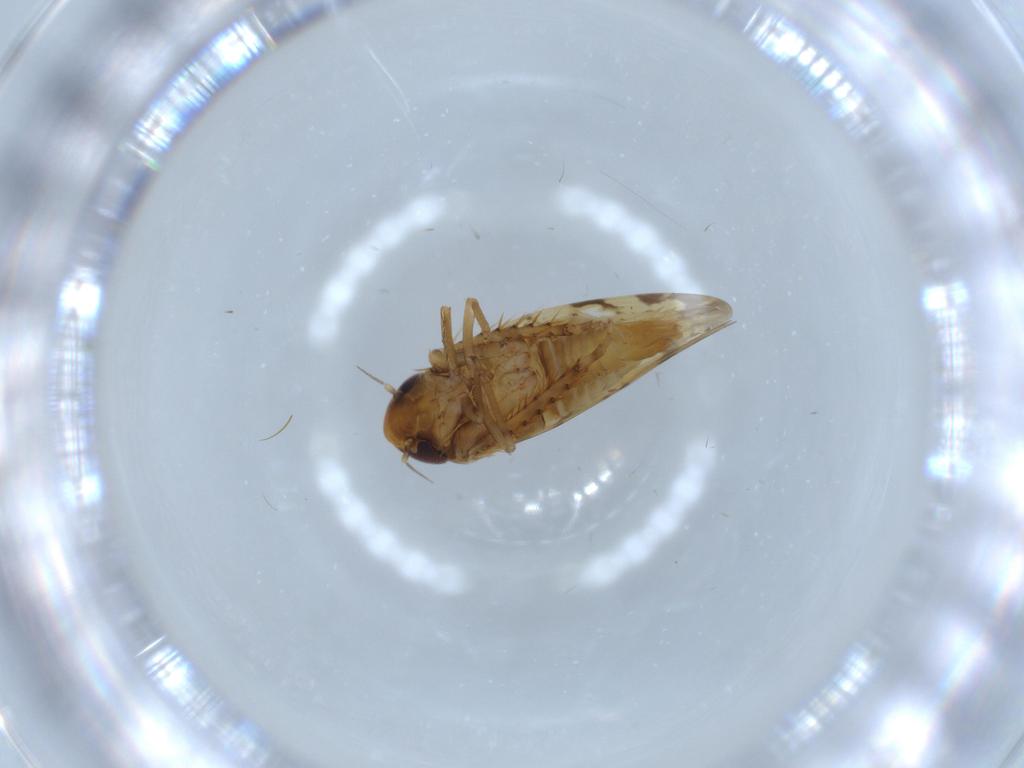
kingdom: Animalia
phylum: Arthropoda
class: Insecta
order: Hemiptera
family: Cicadellidae
